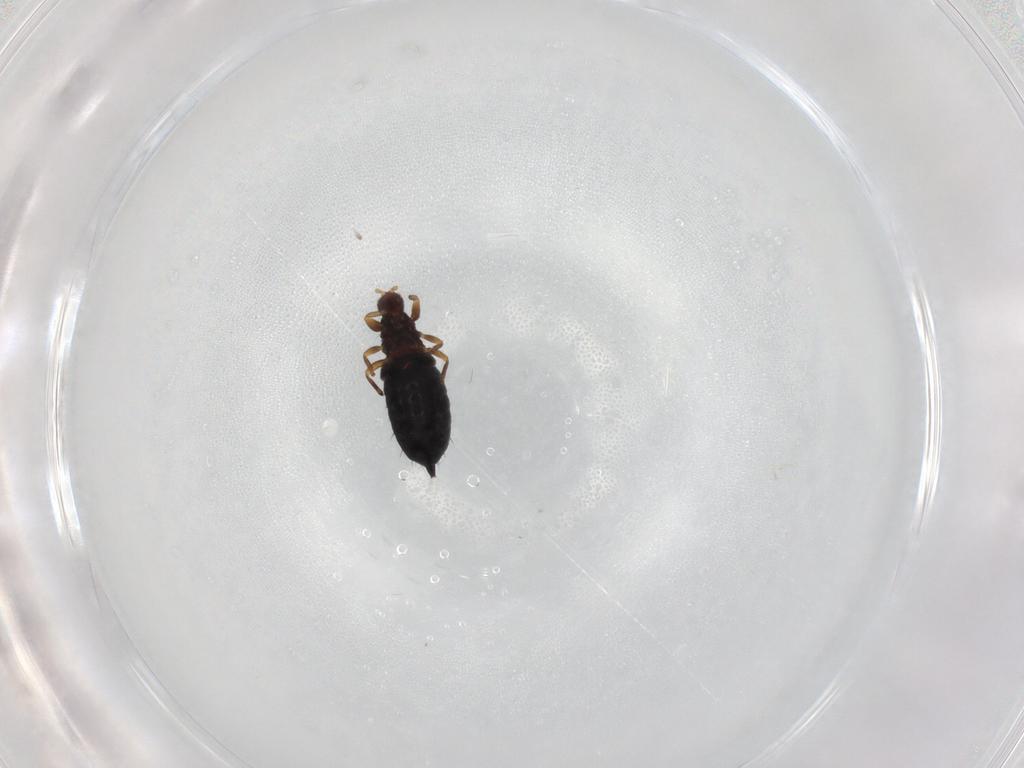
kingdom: Animalia
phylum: Arthropoda
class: Insecta
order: Thysanoptera
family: Phlaeothripidae
